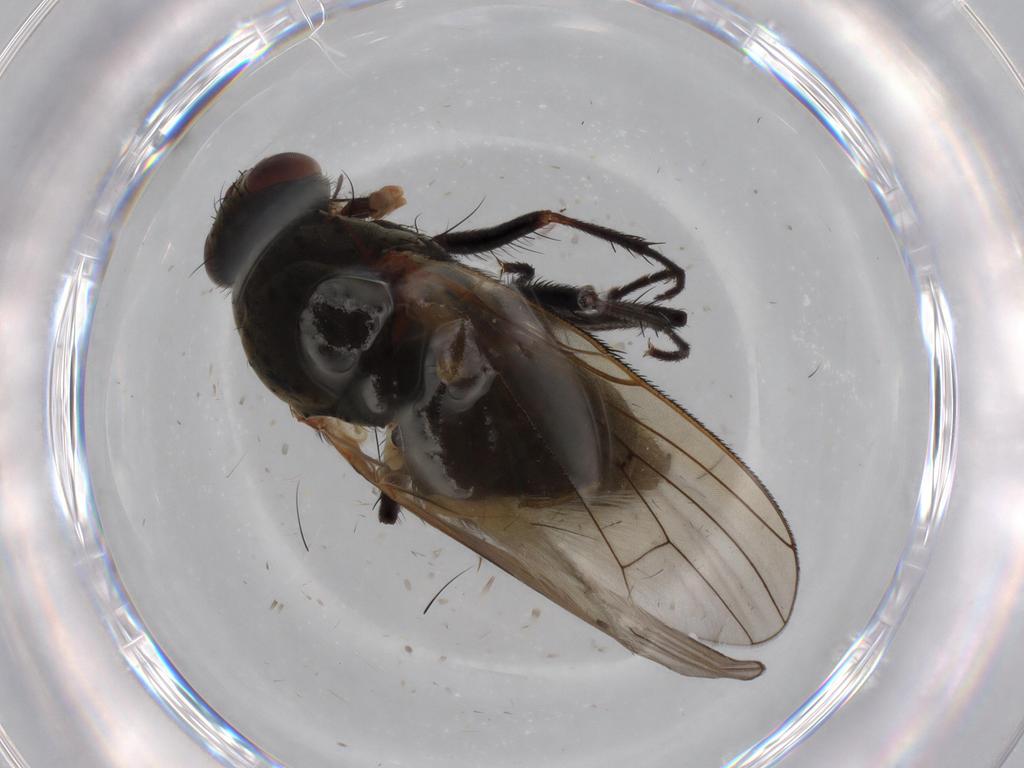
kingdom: Animalia
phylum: Arthropoda
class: Insecta
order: Diptera
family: Anthomyiidae
